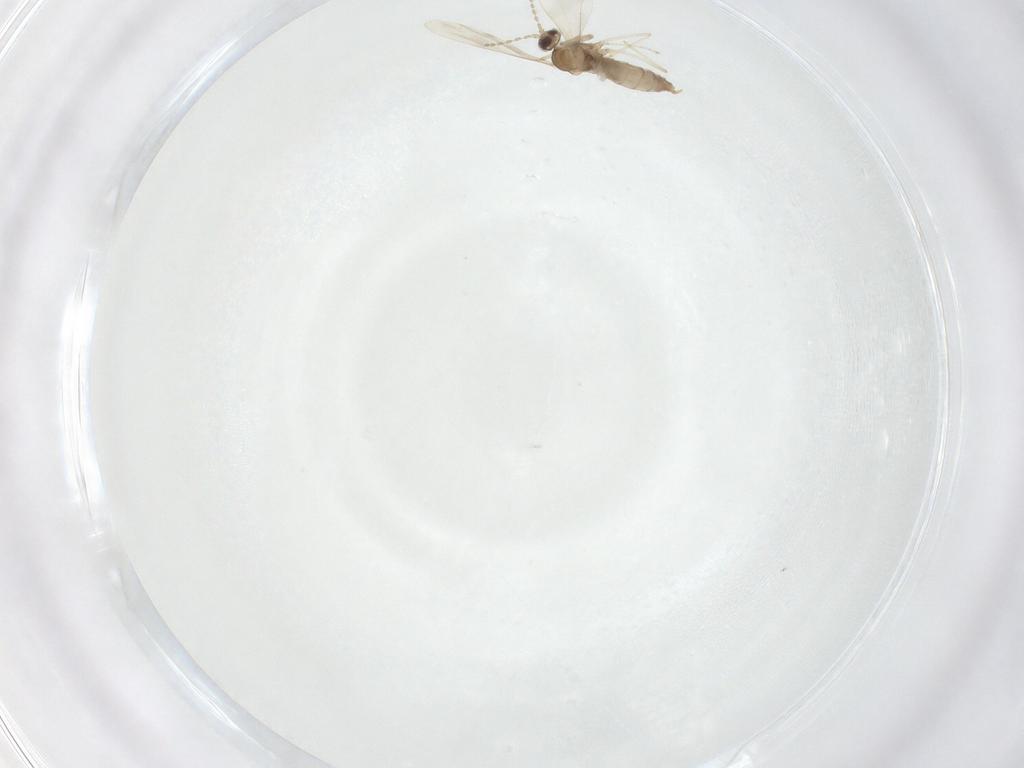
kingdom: Animalia
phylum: Arthropoda
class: Insecta
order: Diptera
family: Cecidomyiidae
